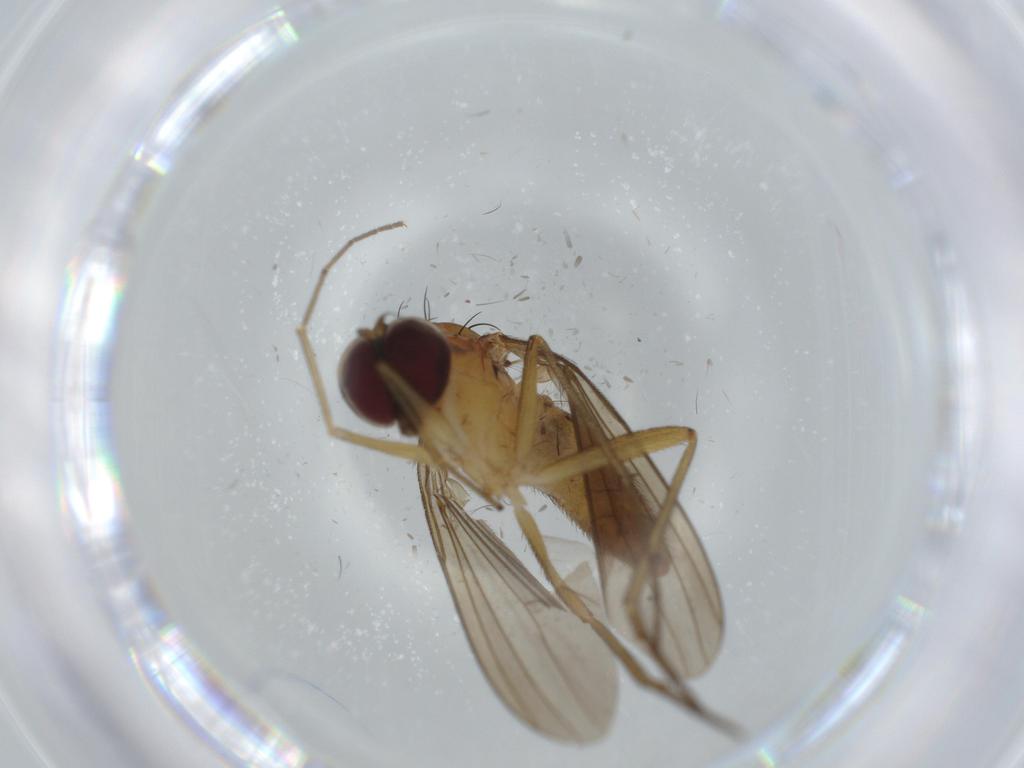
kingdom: Animalia
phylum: Arthropoda
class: Insecta
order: Diptera
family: Dolichopodidae
